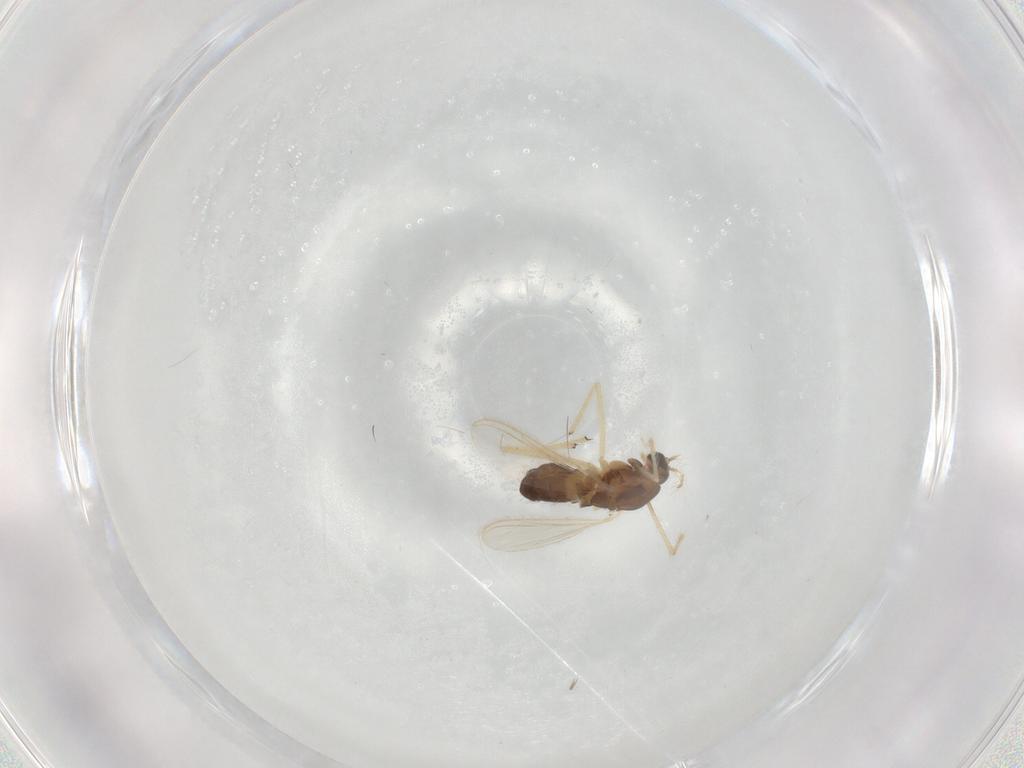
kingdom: Animalia
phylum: Arthropoda
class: Insecta
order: Diptera
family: Chironomidae
